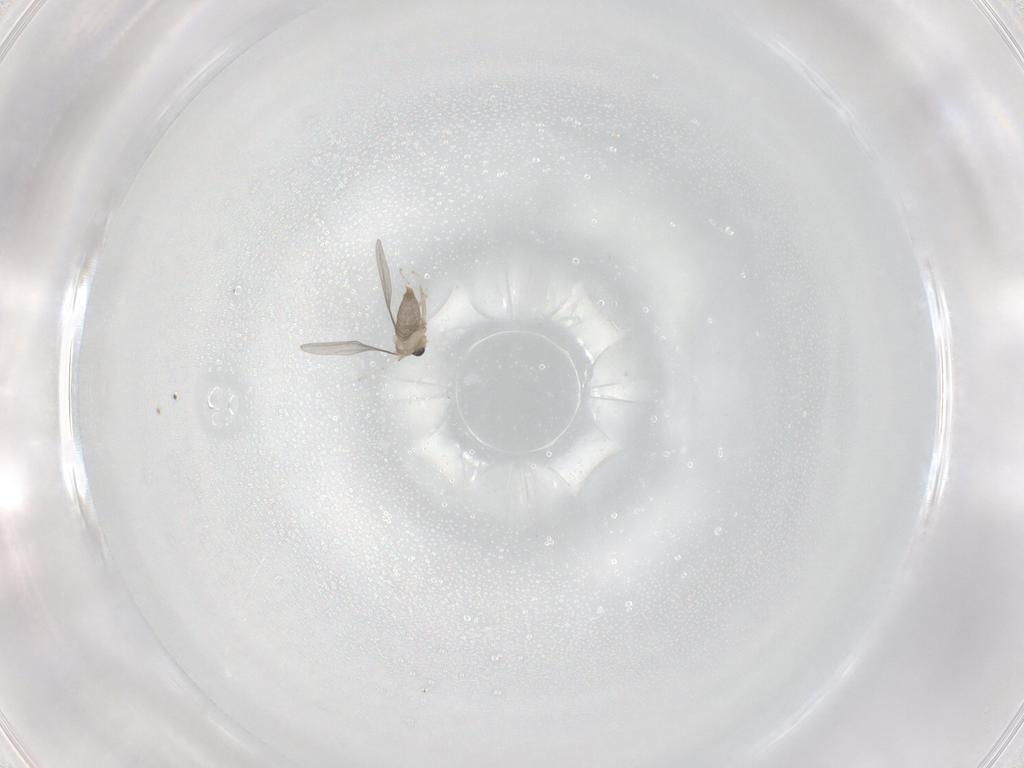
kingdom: Animalia
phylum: Arthropoda
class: Insecta
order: Diptera
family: Cecidomyiidae
